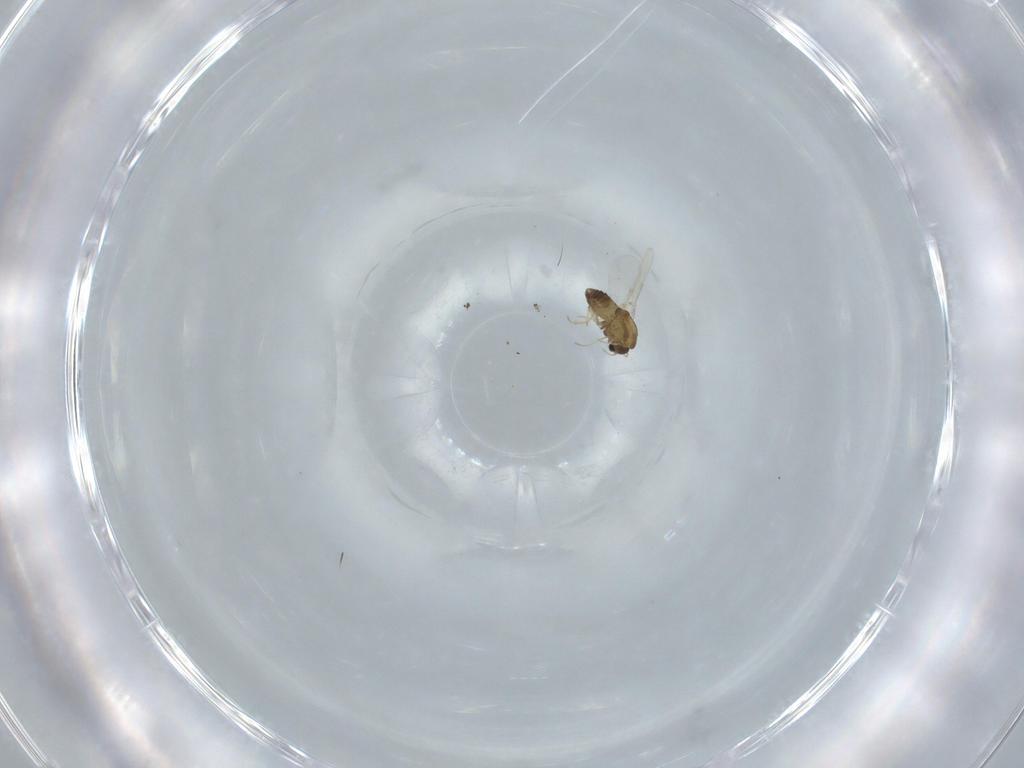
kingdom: Animalia
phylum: Arthropoda
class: Insecta
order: Diptera
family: Chironomidae
